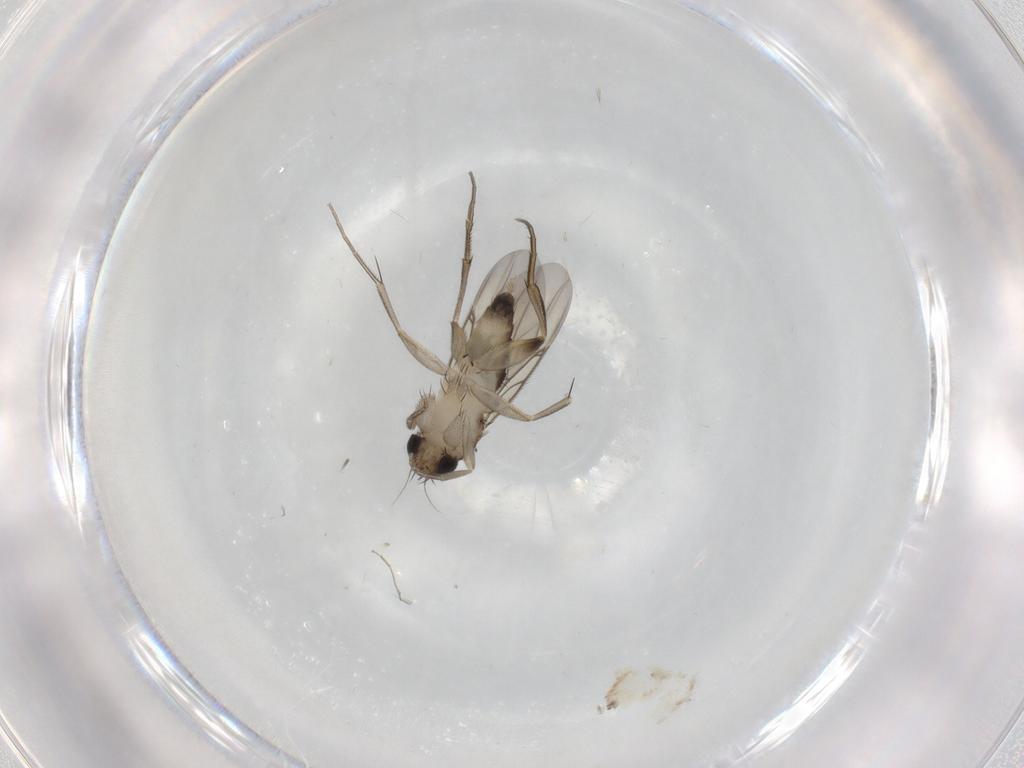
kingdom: Animalia
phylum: Arthropoda
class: Insecta
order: Diptera
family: Phoridae
